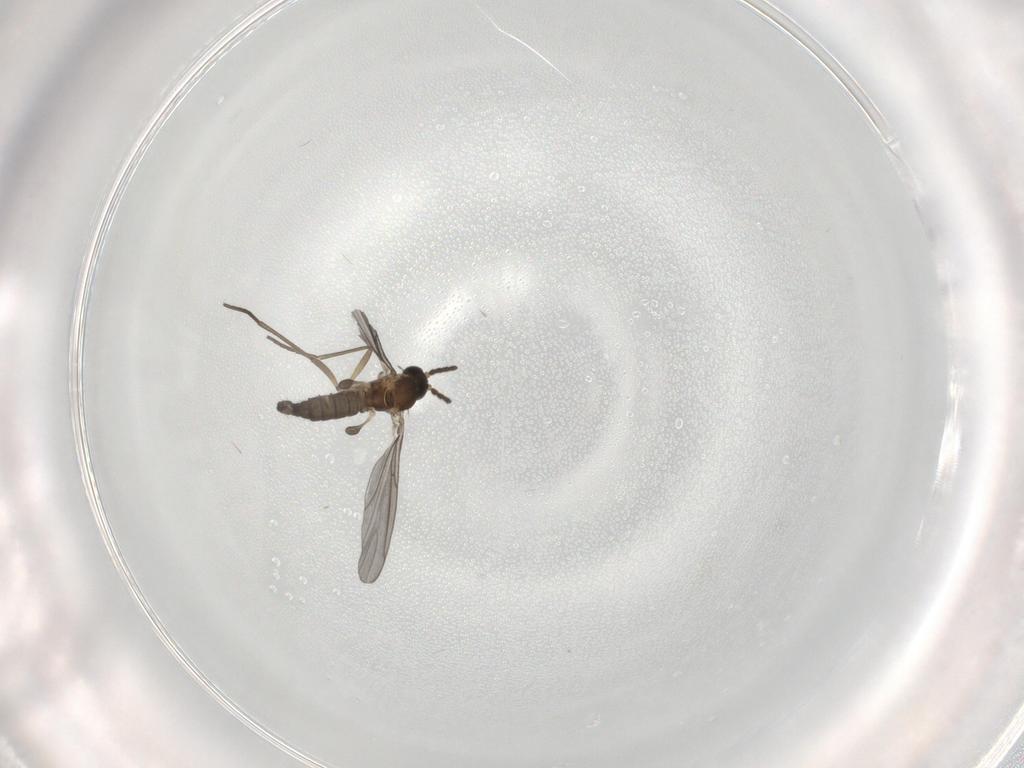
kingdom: Animalia
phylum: Arthropoda
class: Insecta
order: Diptera
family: Sciaridae
